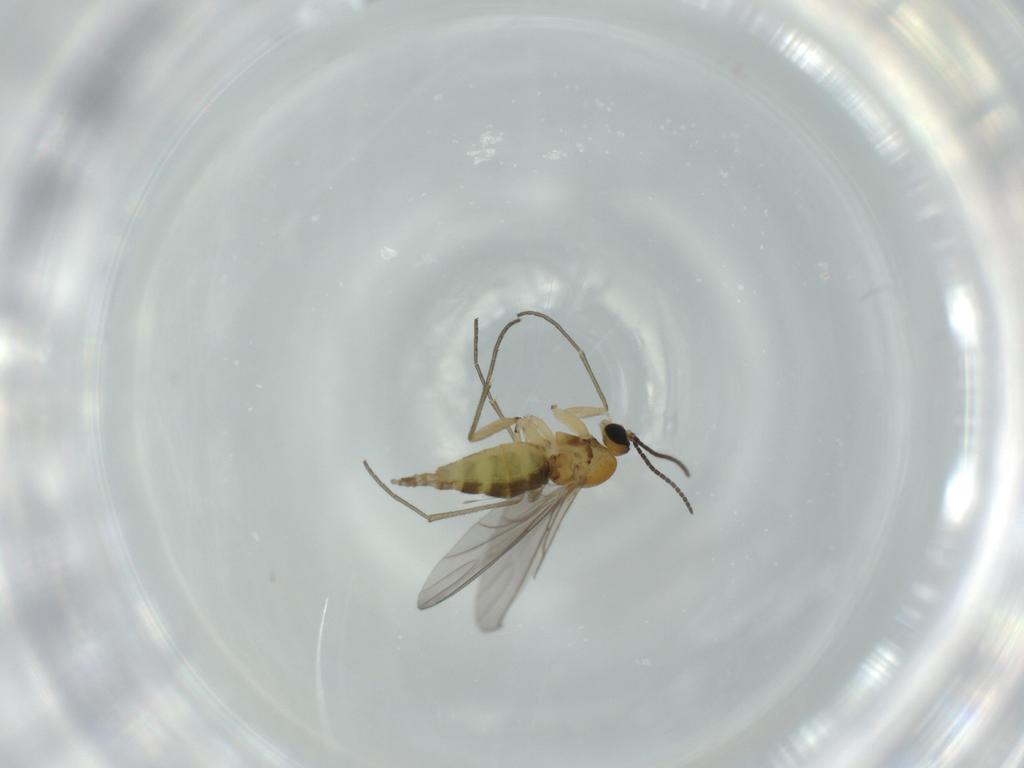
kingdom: Animalia
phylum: Arthropoda
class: Insecta
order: Diptera
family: Sciaridae
